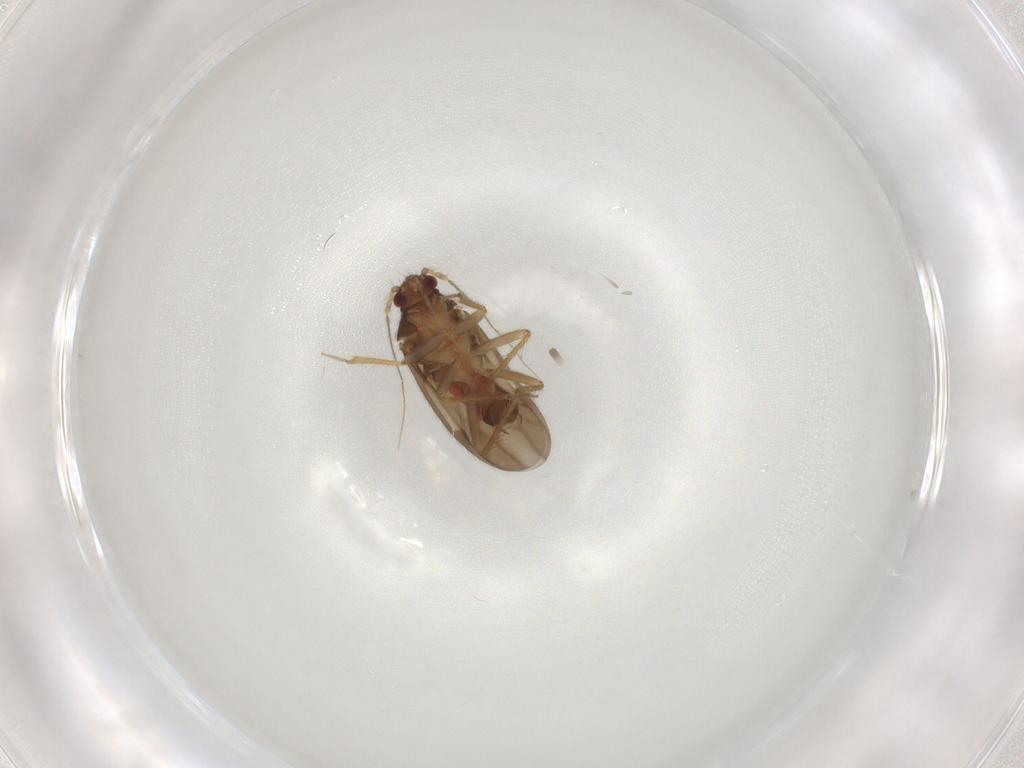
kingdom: Animalia
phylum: Arthropoda
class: Insecta
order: Hemiptera
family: Ceratocombidae
